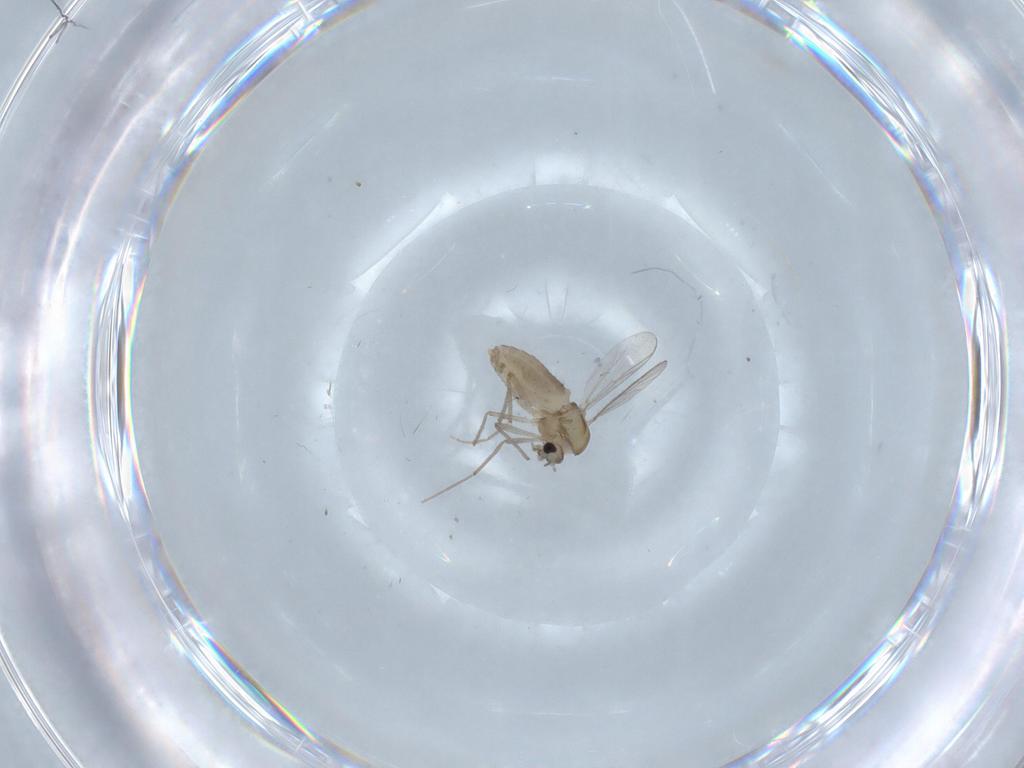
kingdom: Animalia
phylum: Arthropoda
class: Insecta
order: Diptera
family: Chironomidae
